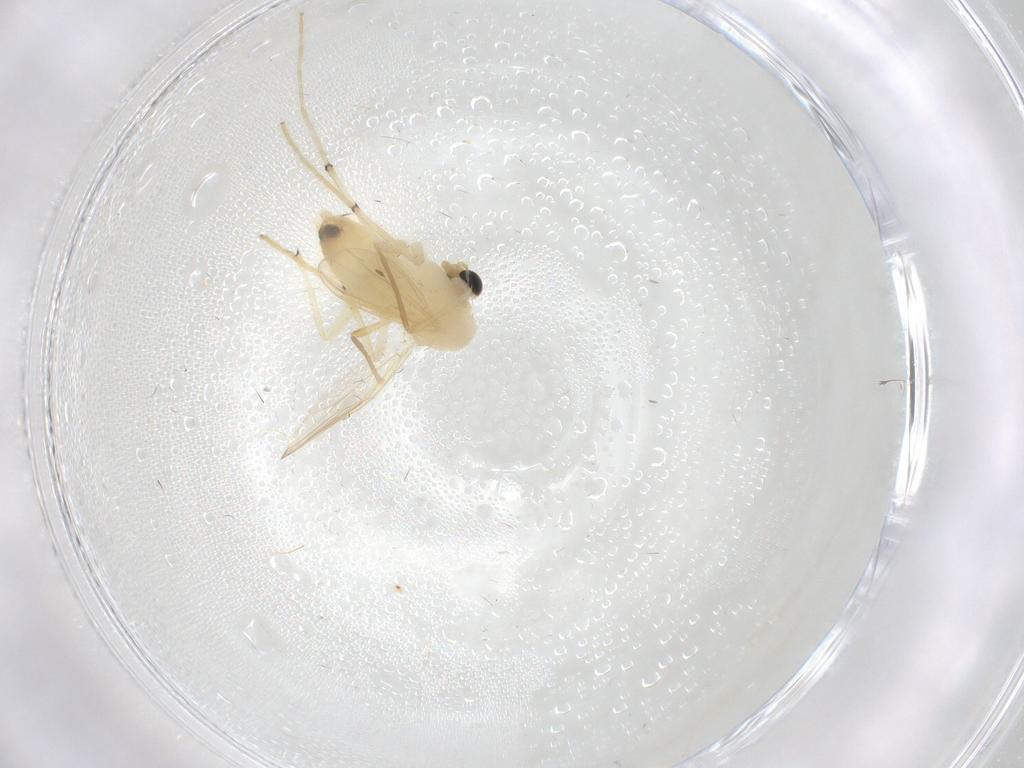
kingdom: Animalia
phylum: Arthropoda
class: Insecta
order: Diptera
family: Chironomidae
